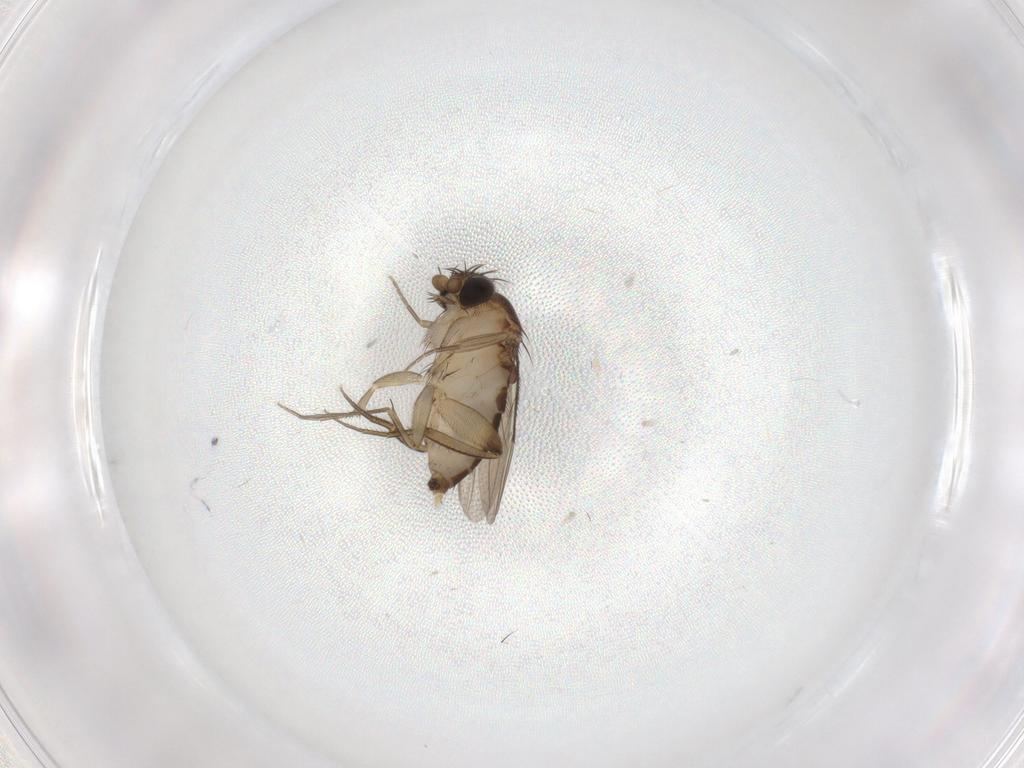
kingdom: Animalia
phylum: Arthropoda
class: Insecta
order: Diptera
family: Phoridae
